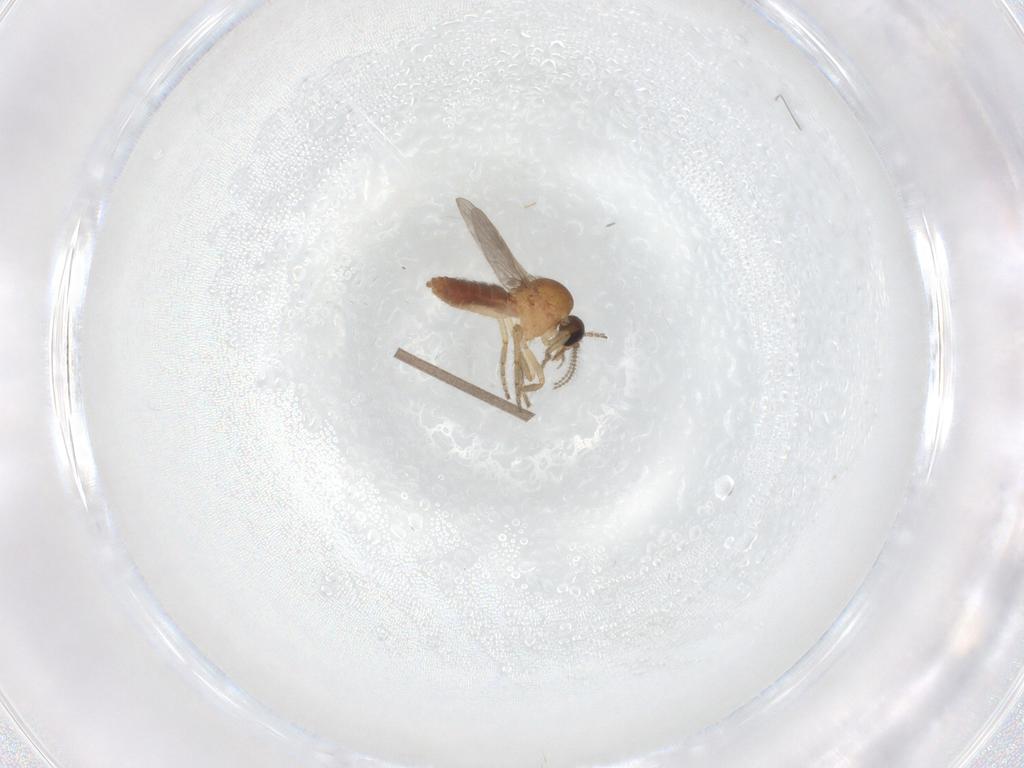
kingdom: Animalia
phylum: Arthropoda
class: Insecta
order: Diptera
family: Ceratopogonidae
